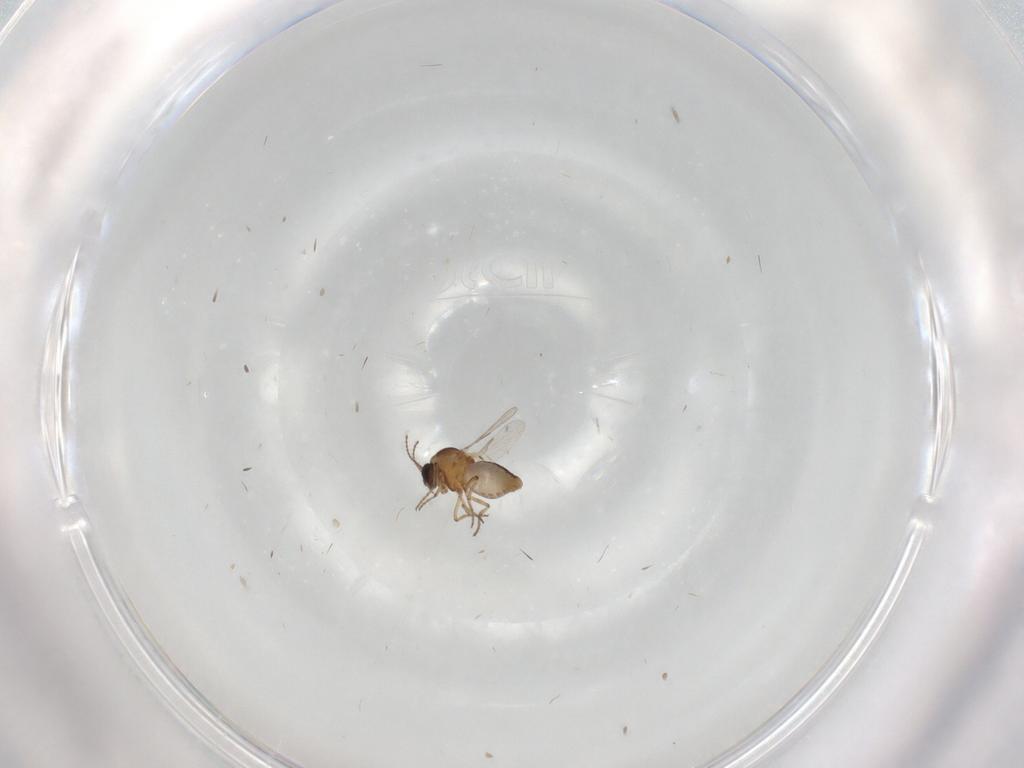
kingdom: Animalia
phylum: Arthropoda
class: Insecta
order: Diptera
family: Ceratopogonidae
